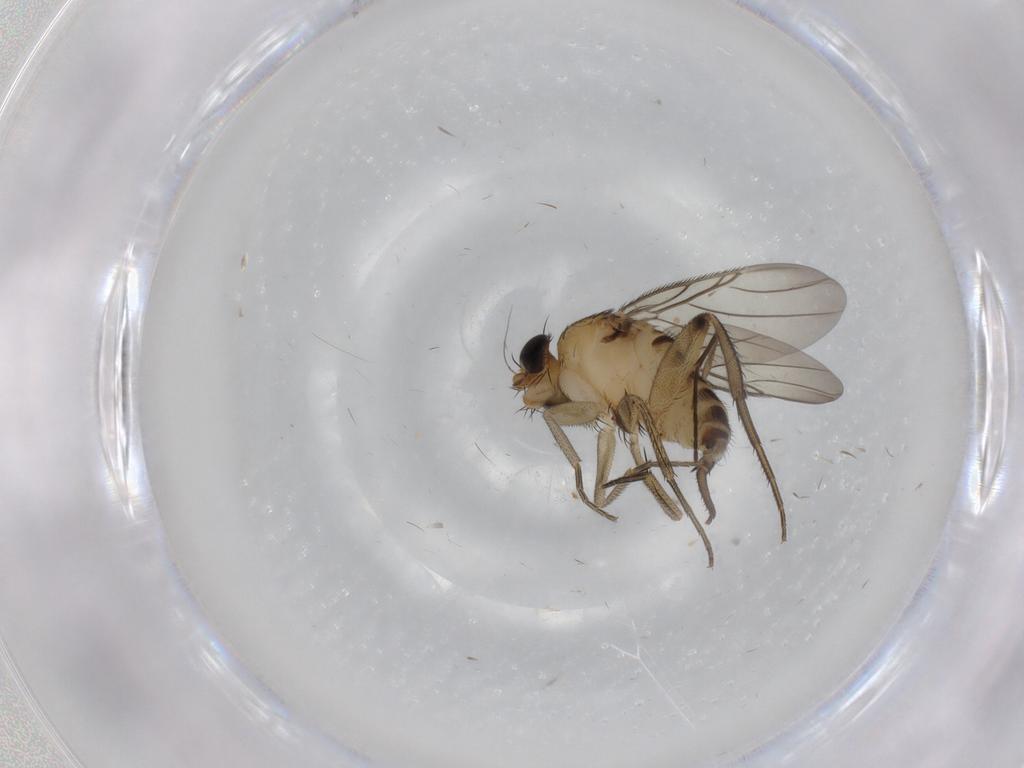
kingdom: Animalia
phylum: Arthropoda
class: Insecta
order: Diptera
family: Phoridae
